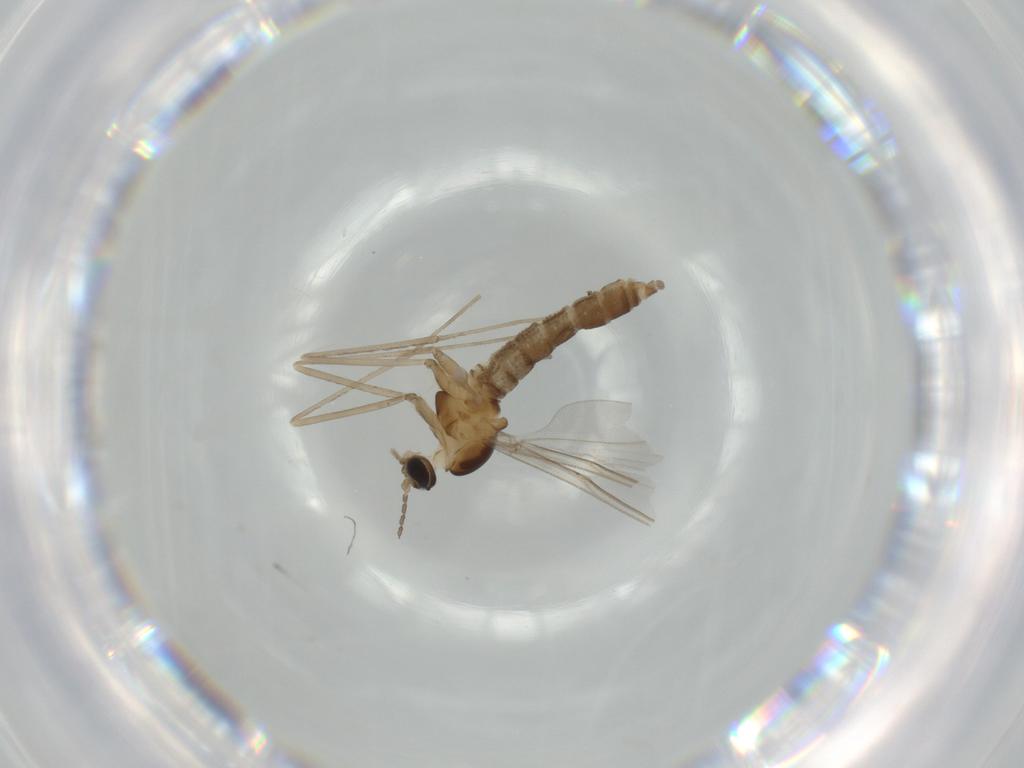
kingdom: Animalia
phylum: Arthropoda
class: Insecta
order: Diptera
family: Cecidomyiidae
